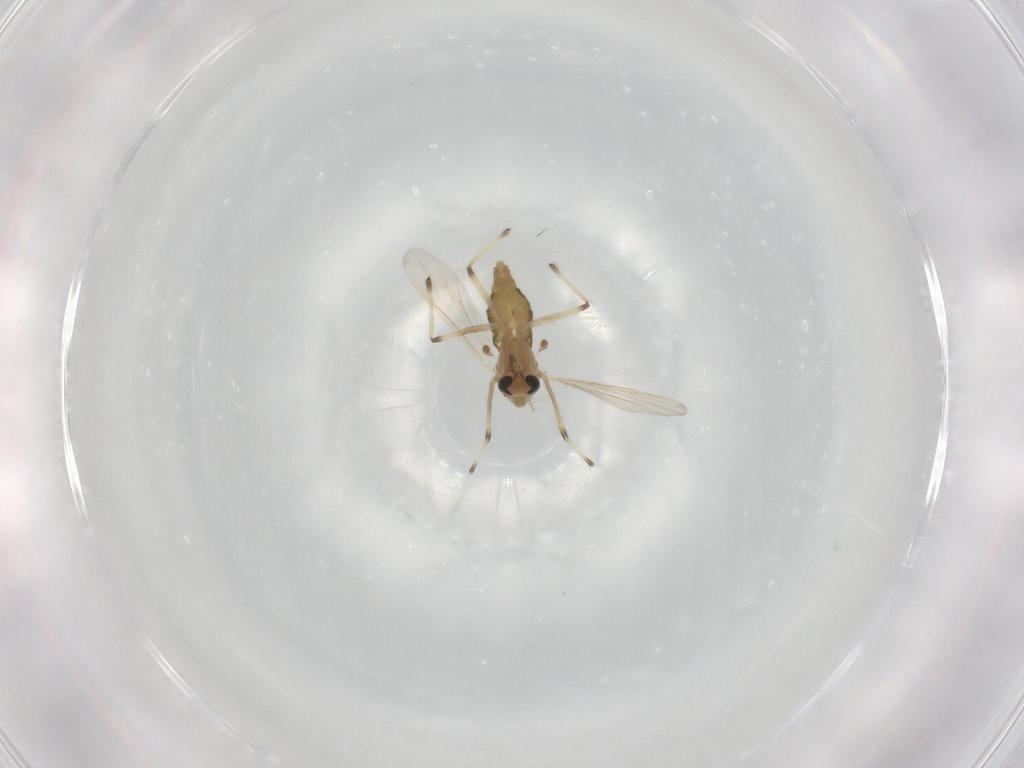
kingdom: Animalia
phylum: Arthropoda
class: Insecta
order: Diptera
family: Chironomidae
